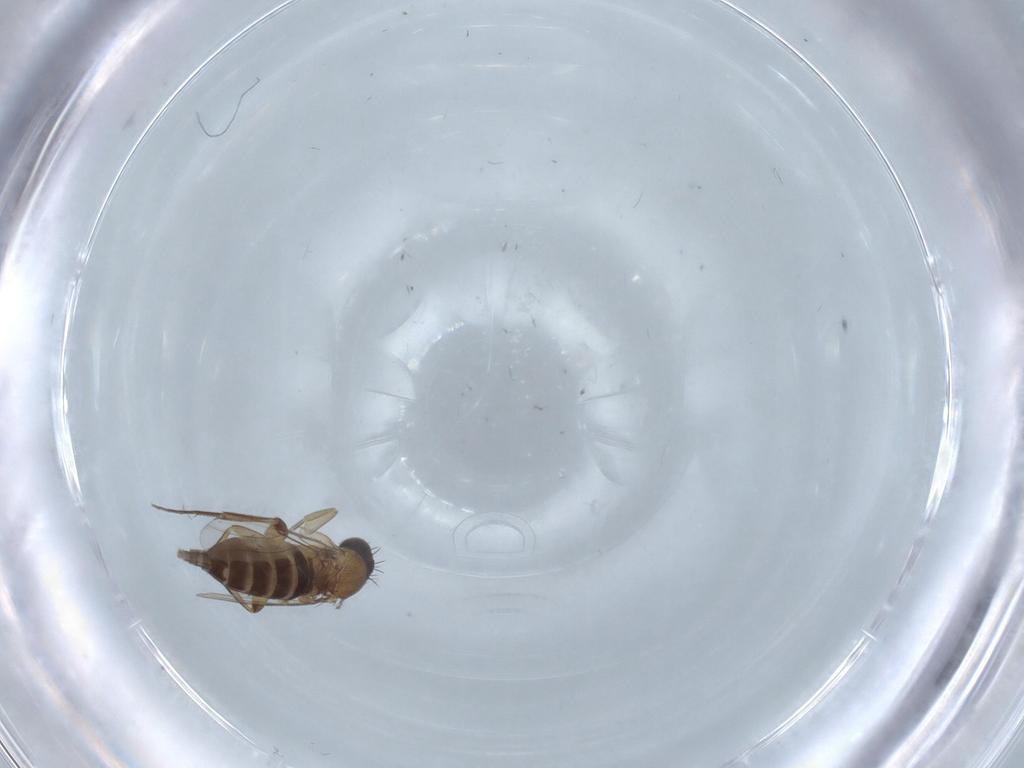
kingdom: Animalia
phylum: Arthropoda
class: Insecta
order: Diptera
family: Phoridae
